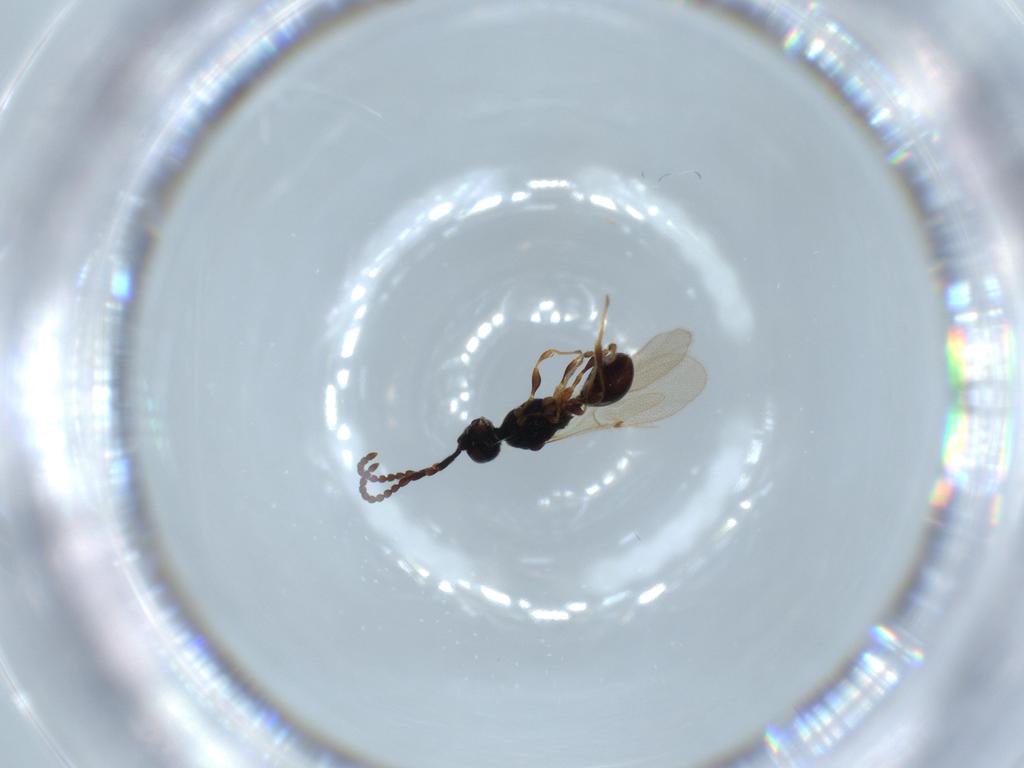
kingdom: Animalia
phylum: Arthropoda
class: Insecta
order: Hymenoptera
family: Diapriidae
